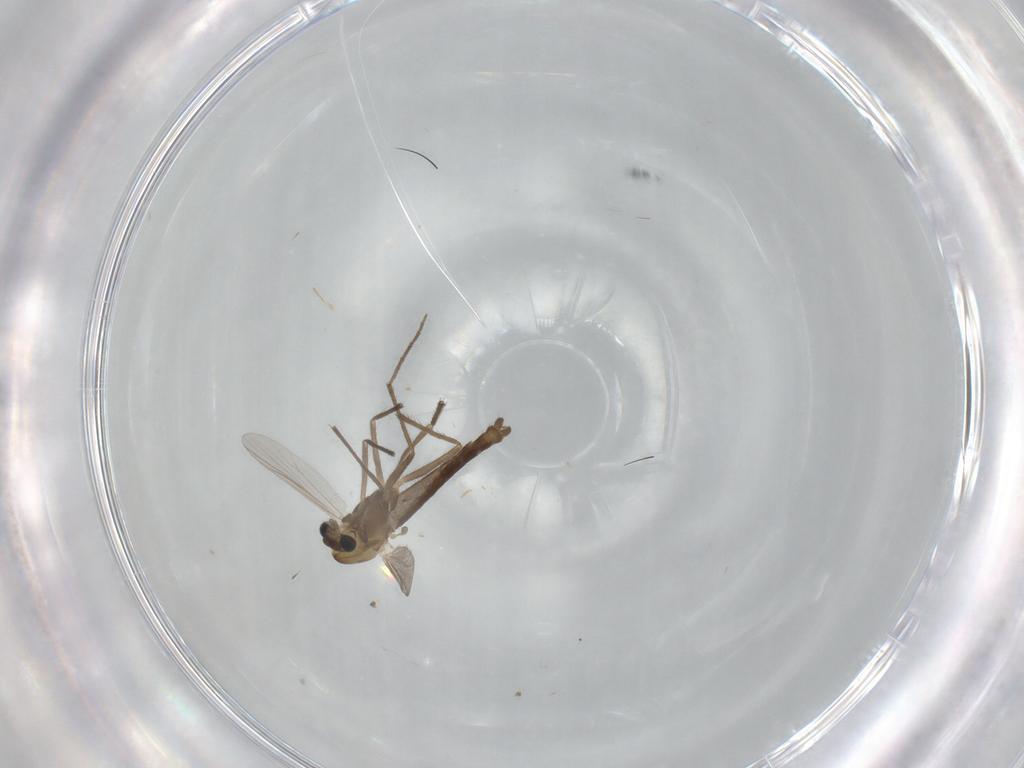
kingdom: Animalia
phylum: Arthropoda
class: Insecta
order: Diptera
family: Chironomidae
